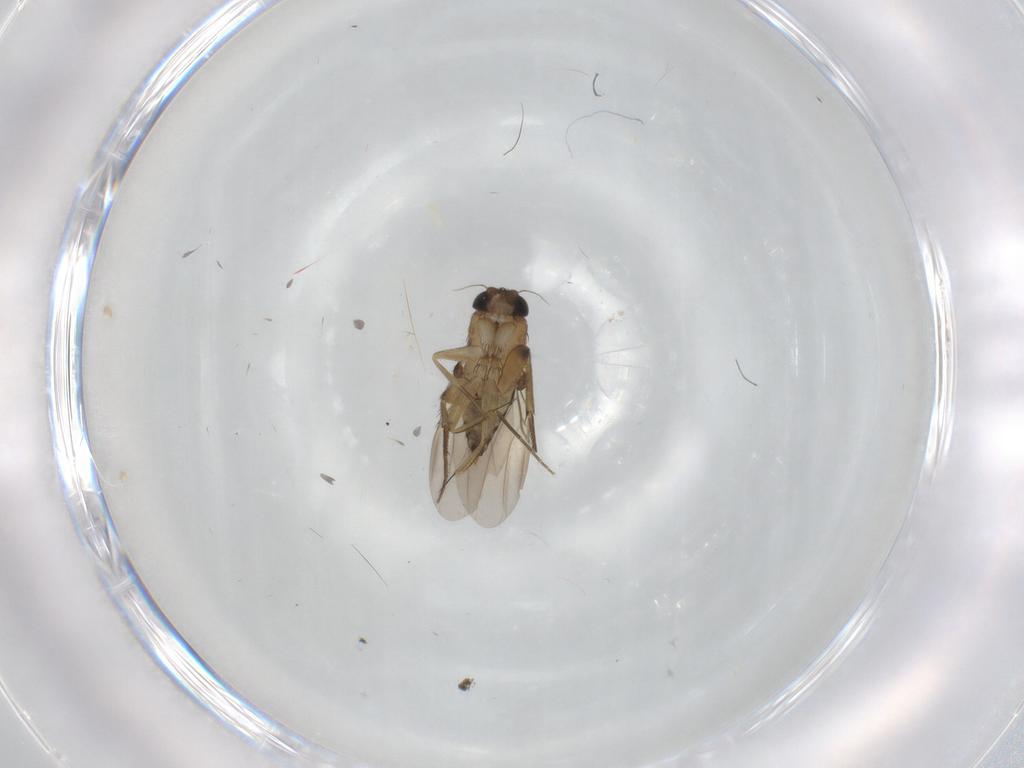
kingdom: Animalia
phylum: Arthropoda
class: Insecta
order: Diptera
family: Phoridae
